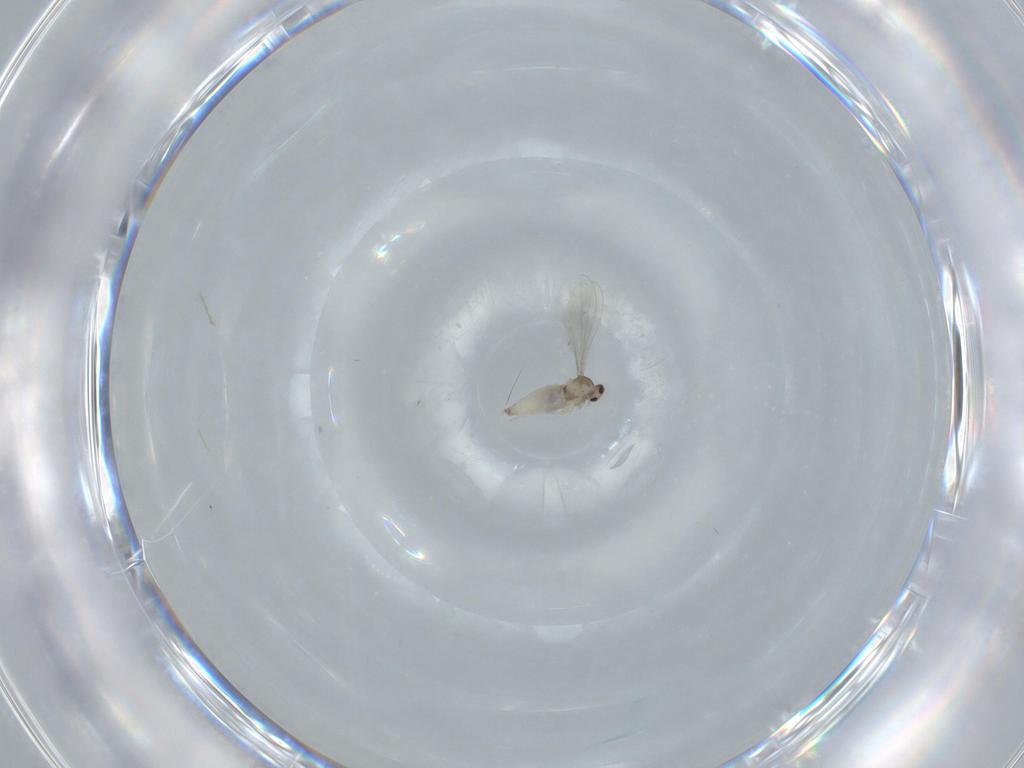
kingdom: Animalia
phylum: Arthropoda
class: Insecta
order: Diptera
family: Cecidomyiidae
